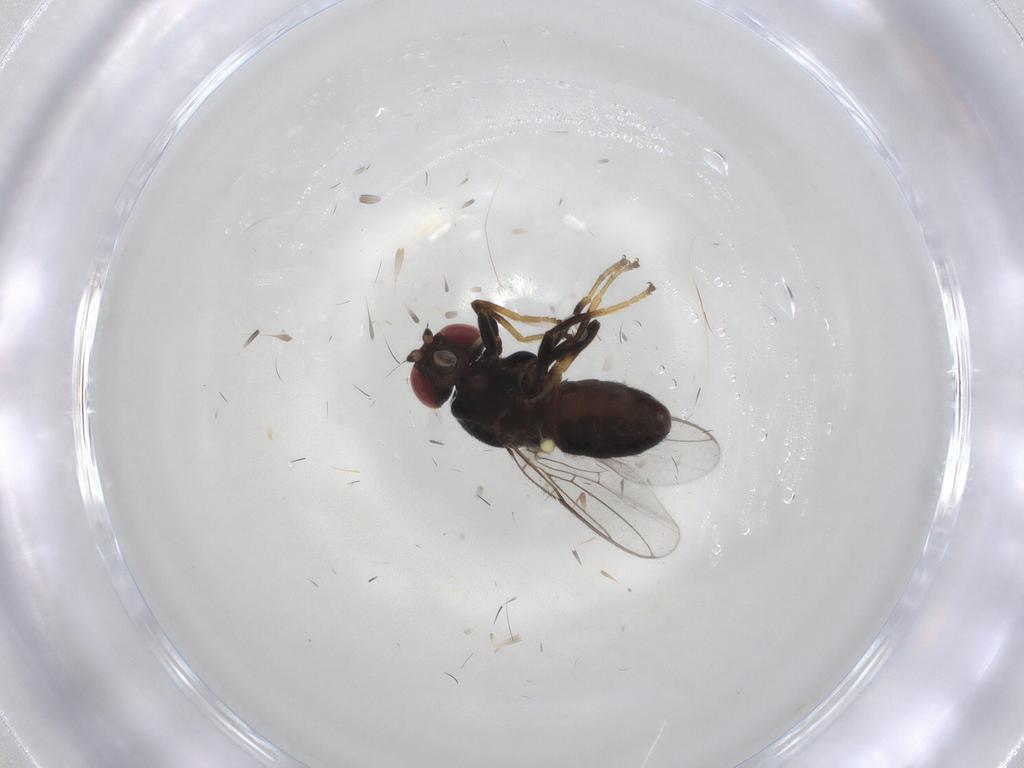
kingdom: Animalia
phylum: Arthropoda
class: Insecta
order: Diptera
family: Chloropidae
